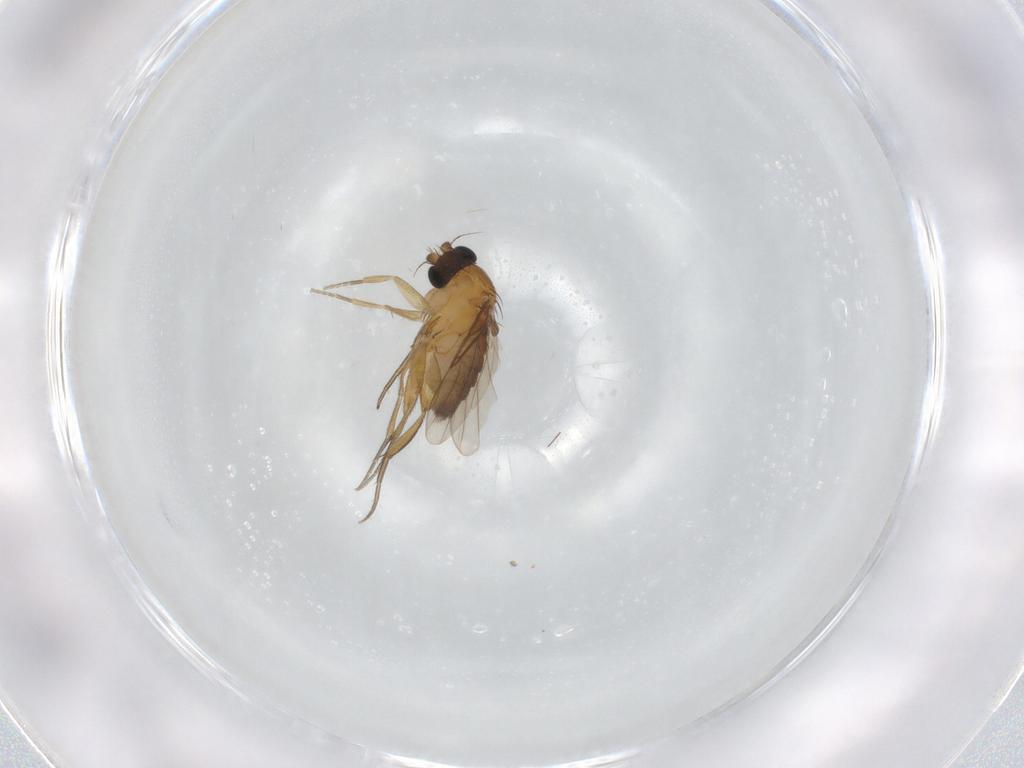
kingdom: Animalia
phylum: Arthropoda
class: Insecta
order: Diptera
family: Phoridae
